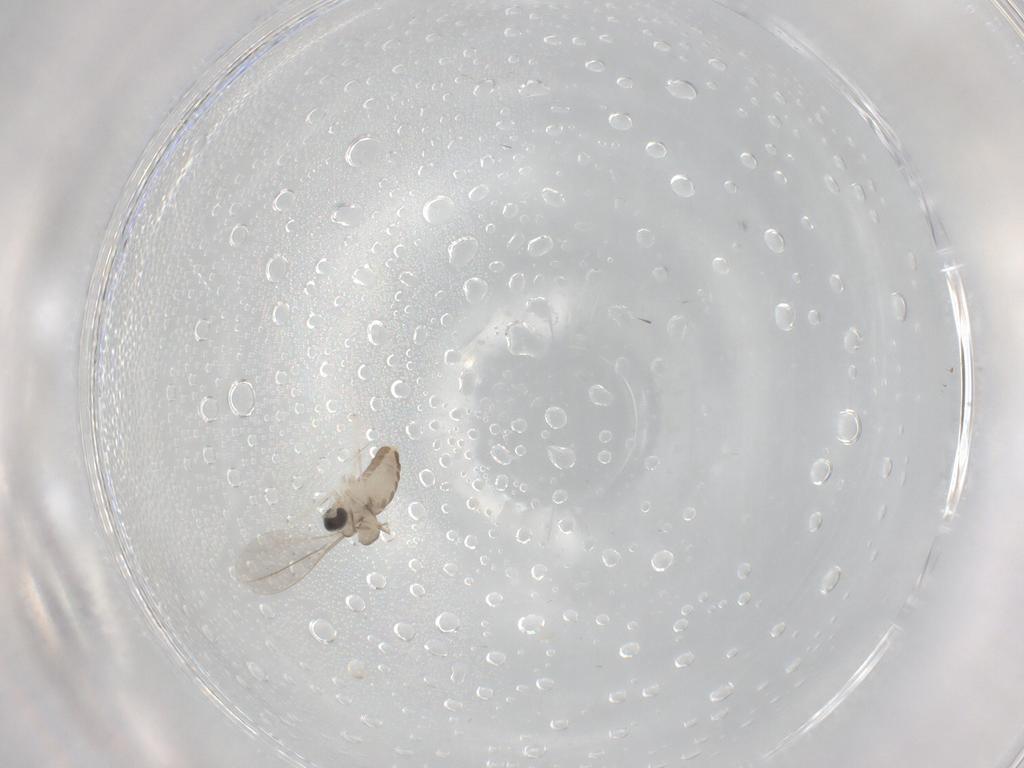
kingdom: Animalia
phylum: Arthropoda
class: Insecta
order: Diptera
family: Cecidomyiidae
